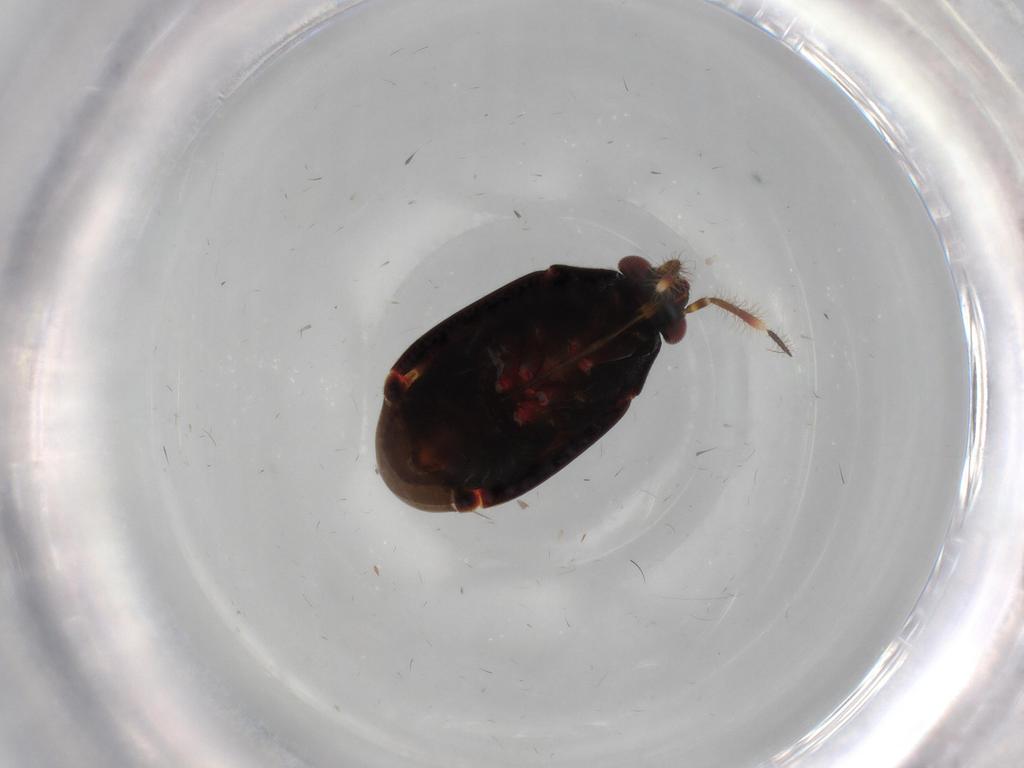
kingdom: Animalia
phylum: Arthropoda
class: Insecta
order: Hemiptera
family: Miridae
